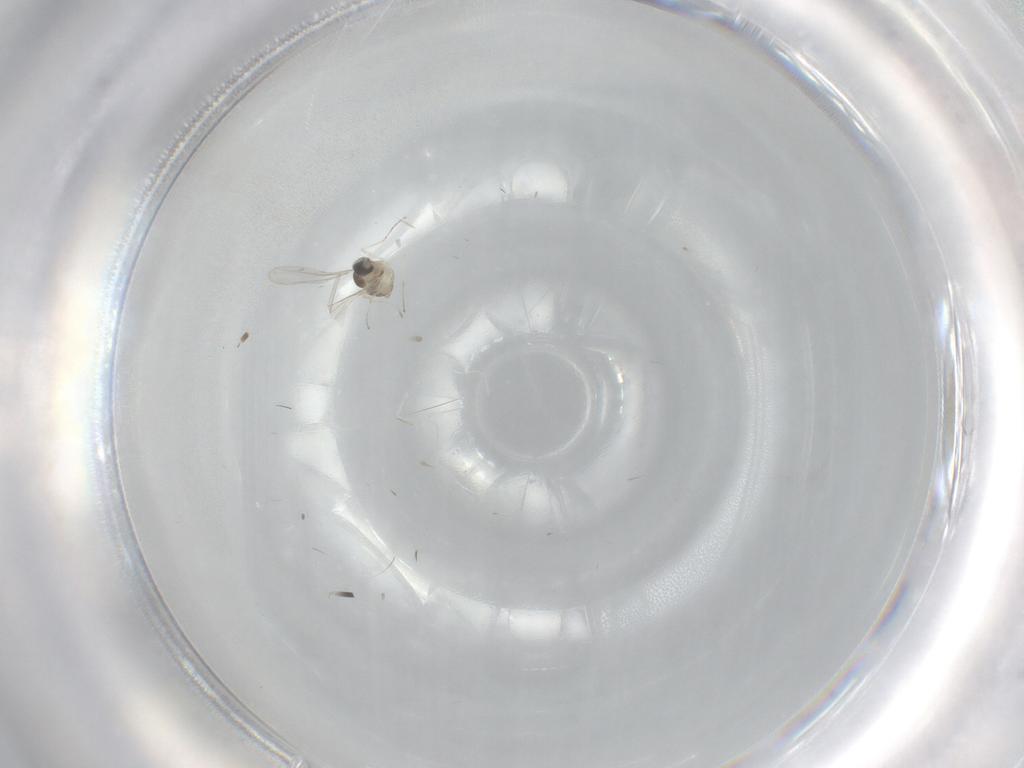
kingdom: Animalia
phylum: Arthropoda
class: Insecta
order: Diptera
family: Cecidomyiidae
